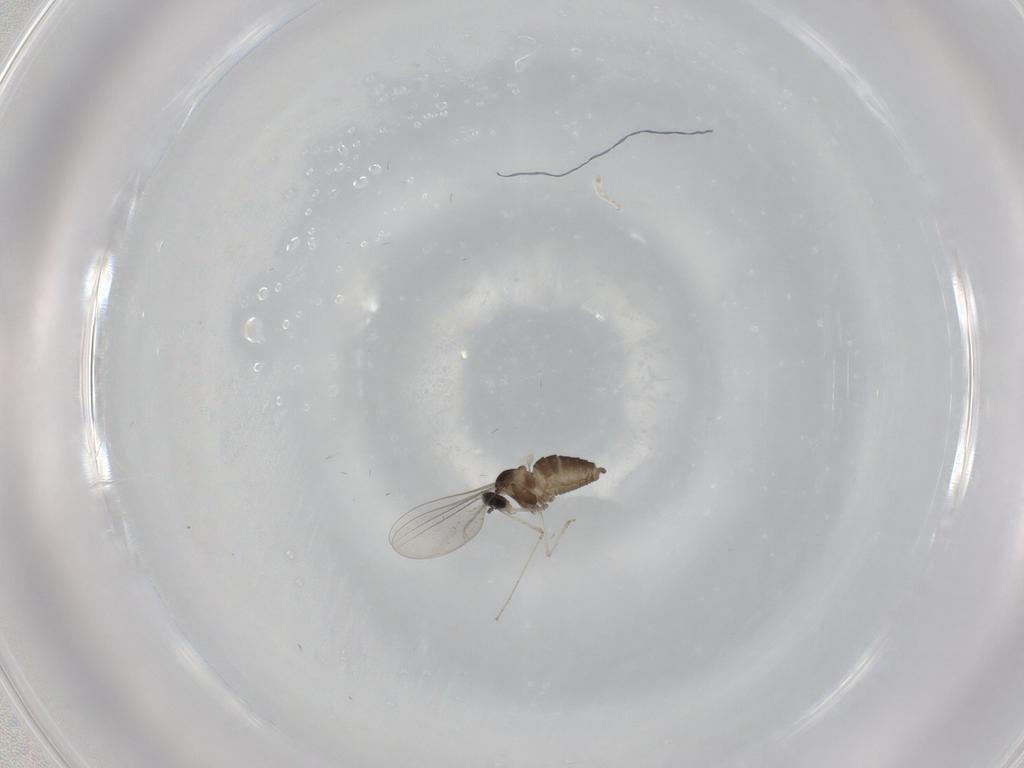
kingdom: Animalia
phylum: Arthropoda
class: Insecta
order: Diptera
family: Cecidomyiidae
